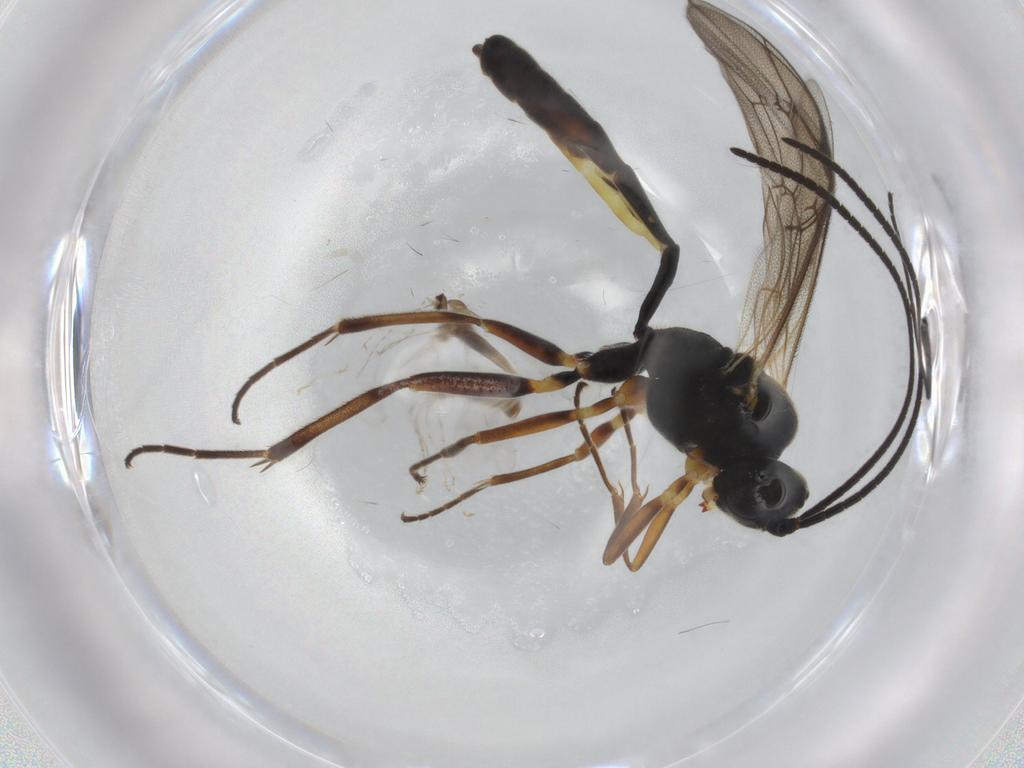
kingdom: Animalia
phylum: Arthropoda
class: Insecta
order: Hymenoptera
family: Ichneumonidae
